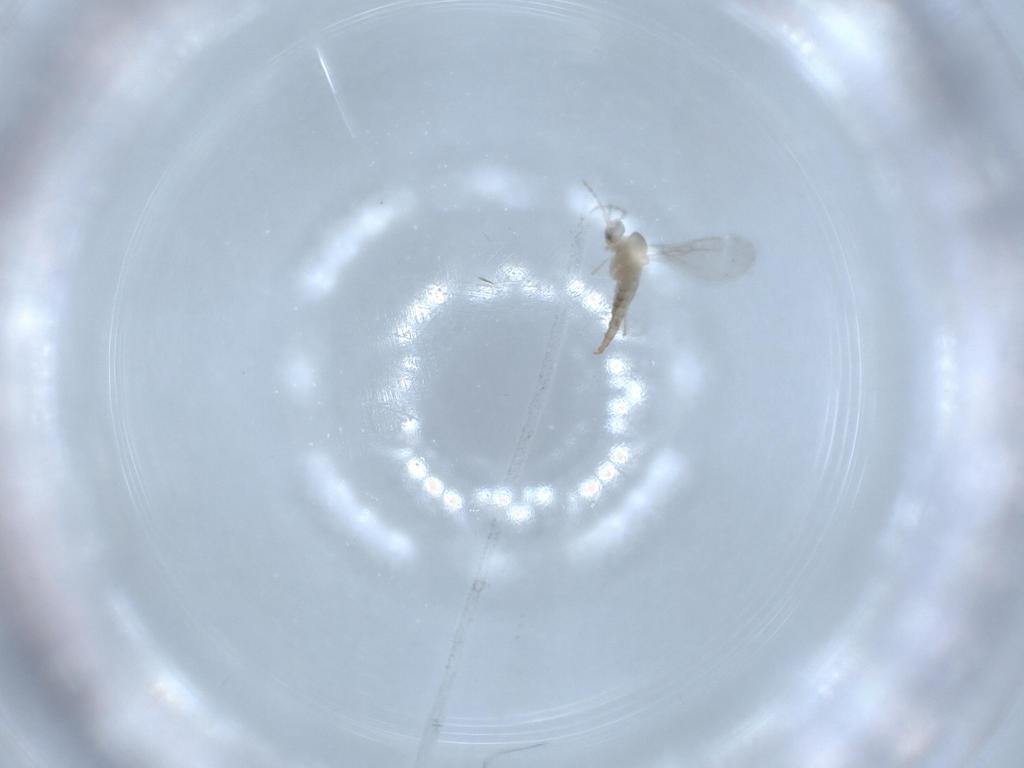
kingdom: Animalia
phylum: Arthropoda
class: Insecta
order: Diptera
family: Cecidomyiidae
